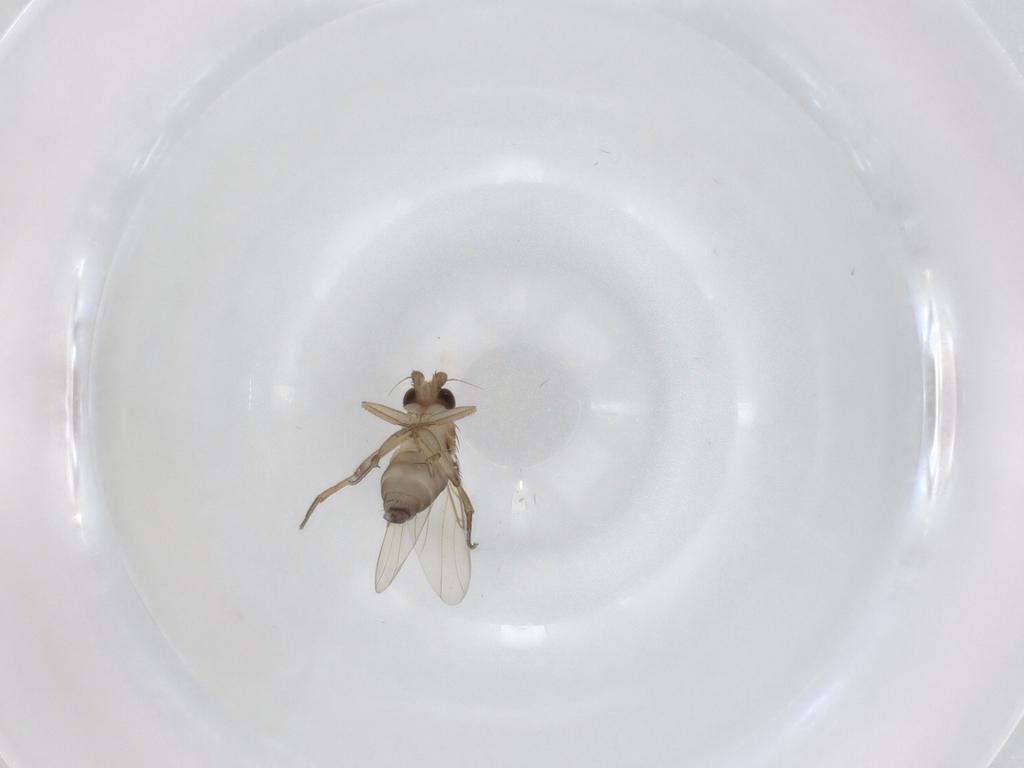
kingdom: Animalia
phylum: Arthropoda
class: Insecta
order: Diptera
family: Phoridae
